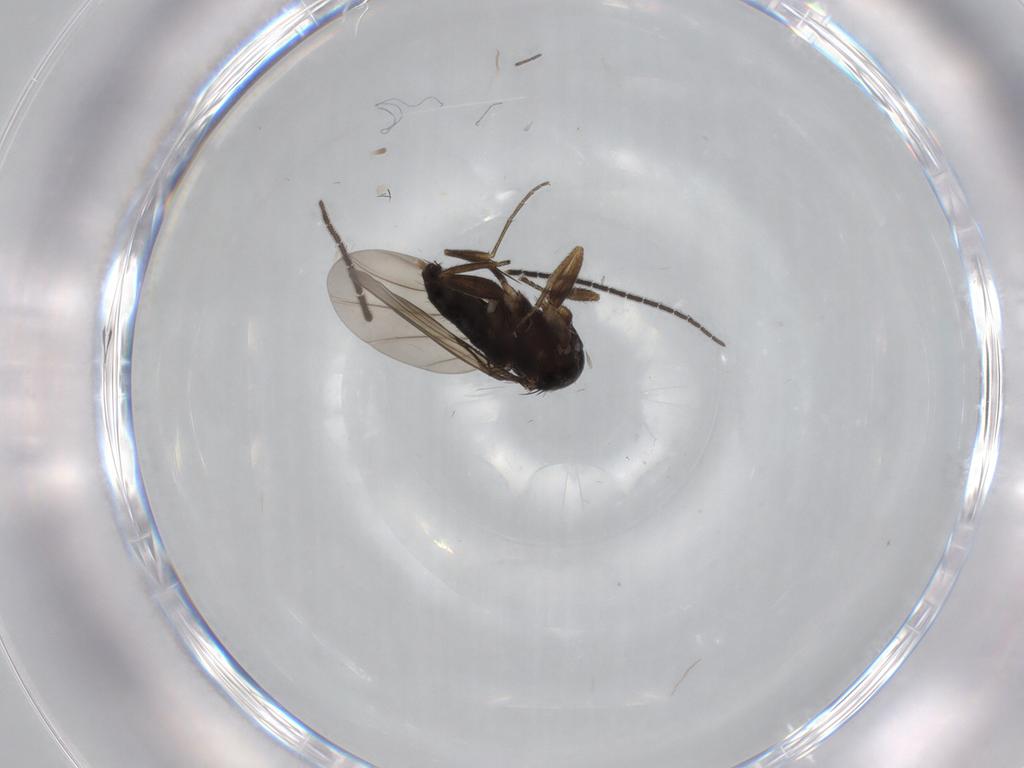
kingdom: Animalia
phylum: Arthropoda
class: Insecta
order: Diptera
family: Phoridae
